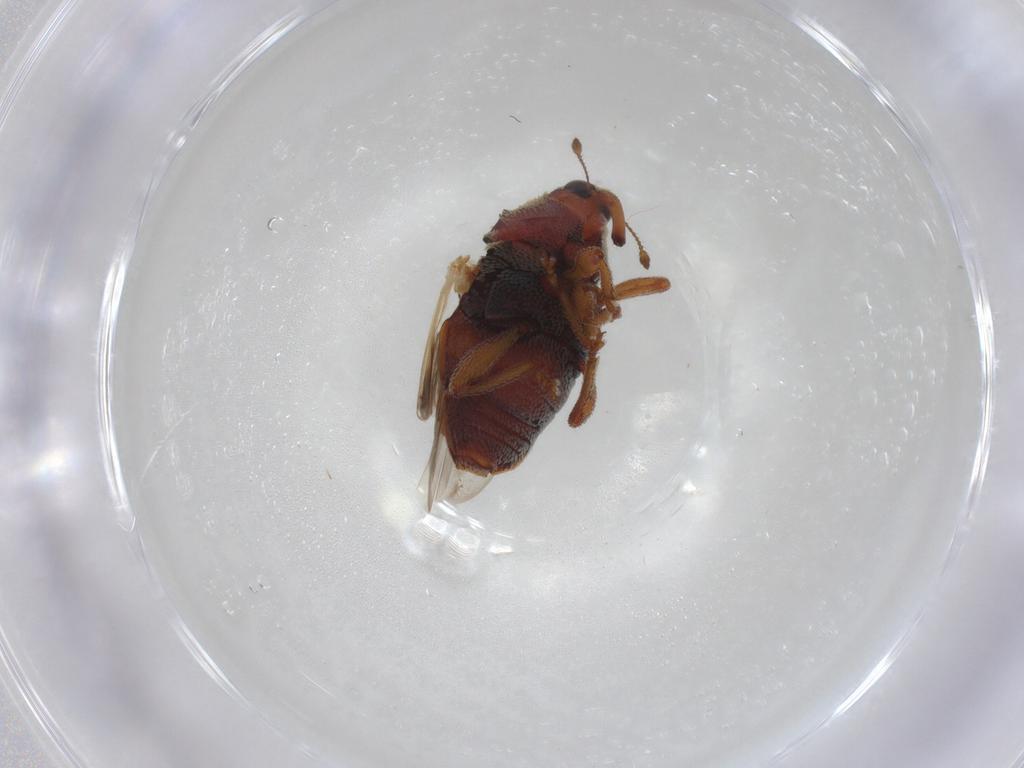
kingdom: Animalia
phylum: Arthropoda
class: Insecta
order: Coleoptera
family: Curculionidae
